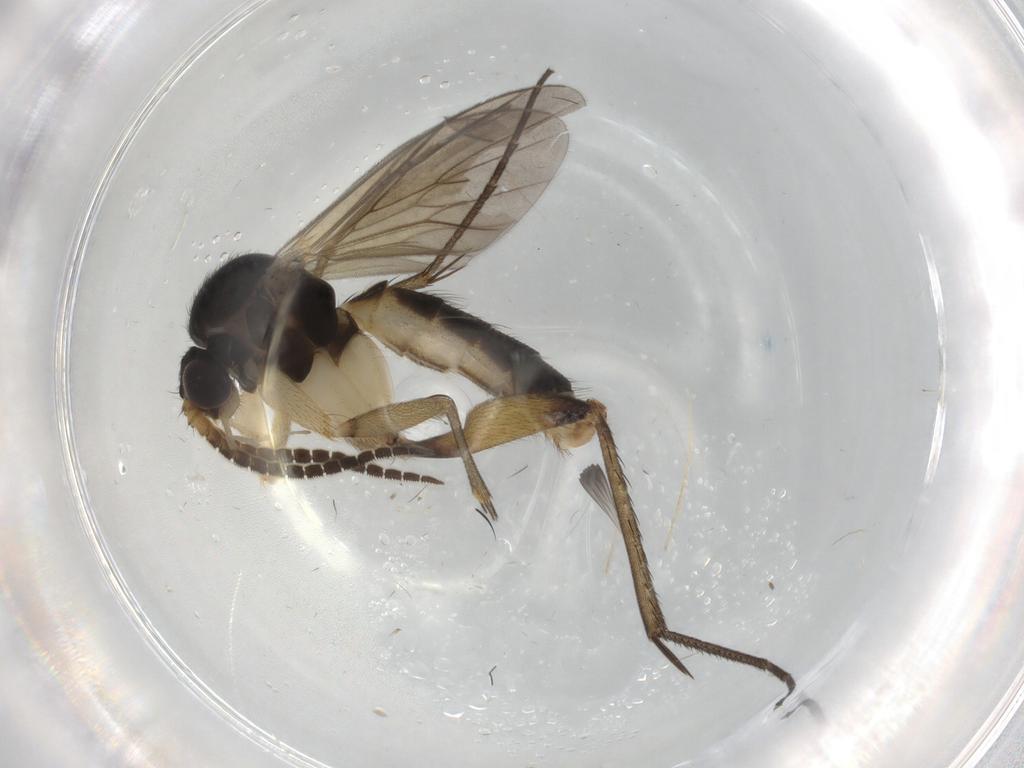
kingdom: Animalia
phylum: Arthropoda
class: Insecta
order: Diptera
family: Mycetophilidae
